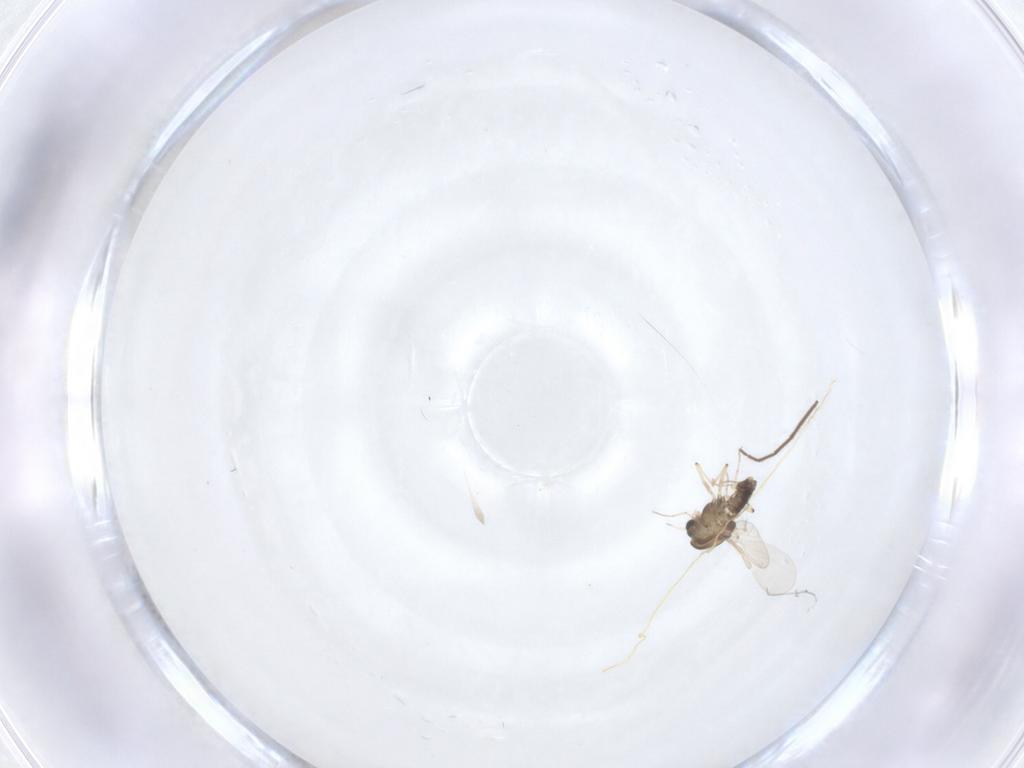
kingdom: Animalia
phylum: Arthropoda
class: Insecta
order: Diptera
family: Chironomidae
